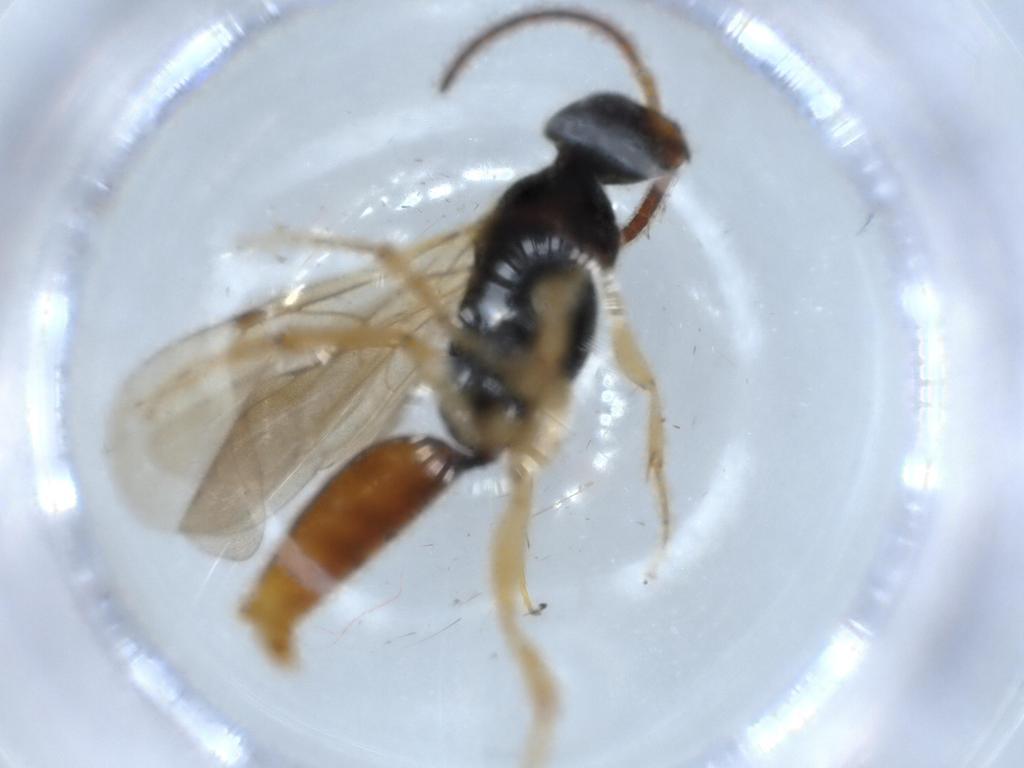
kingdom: Animalia
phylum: Arthropoda
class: Insecta
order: Hymenoptera
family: Bethylidae
